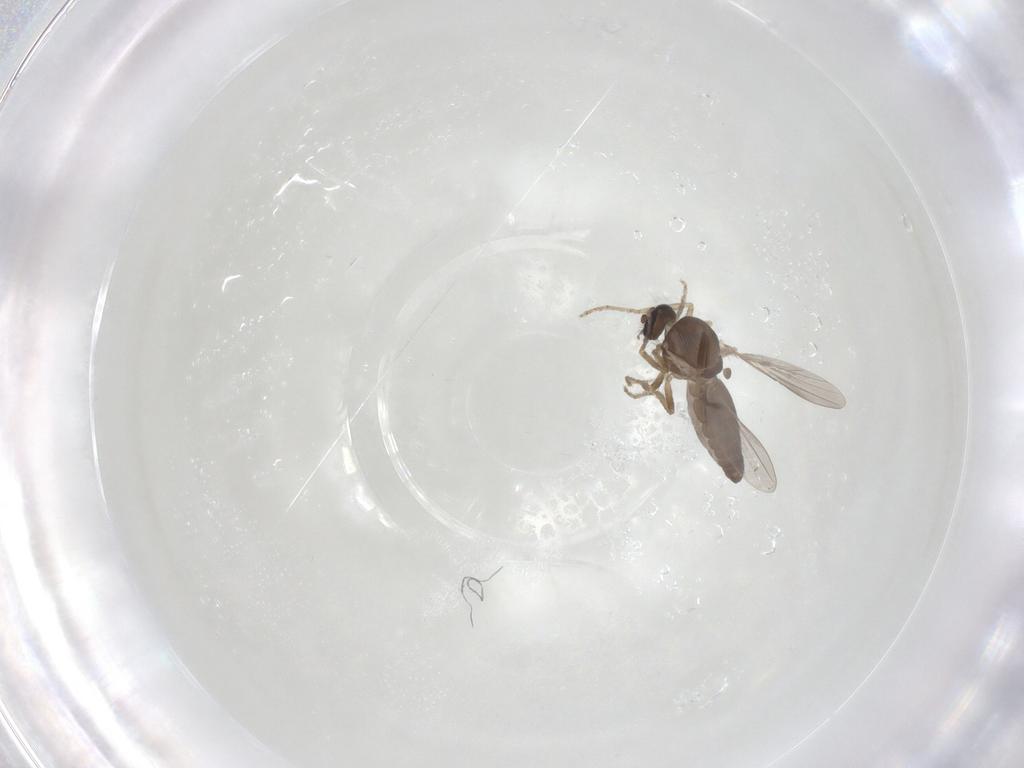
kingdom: Animalia
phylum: Arthropoda
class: Insecta
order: Diptera
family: Ceratopogonidae
